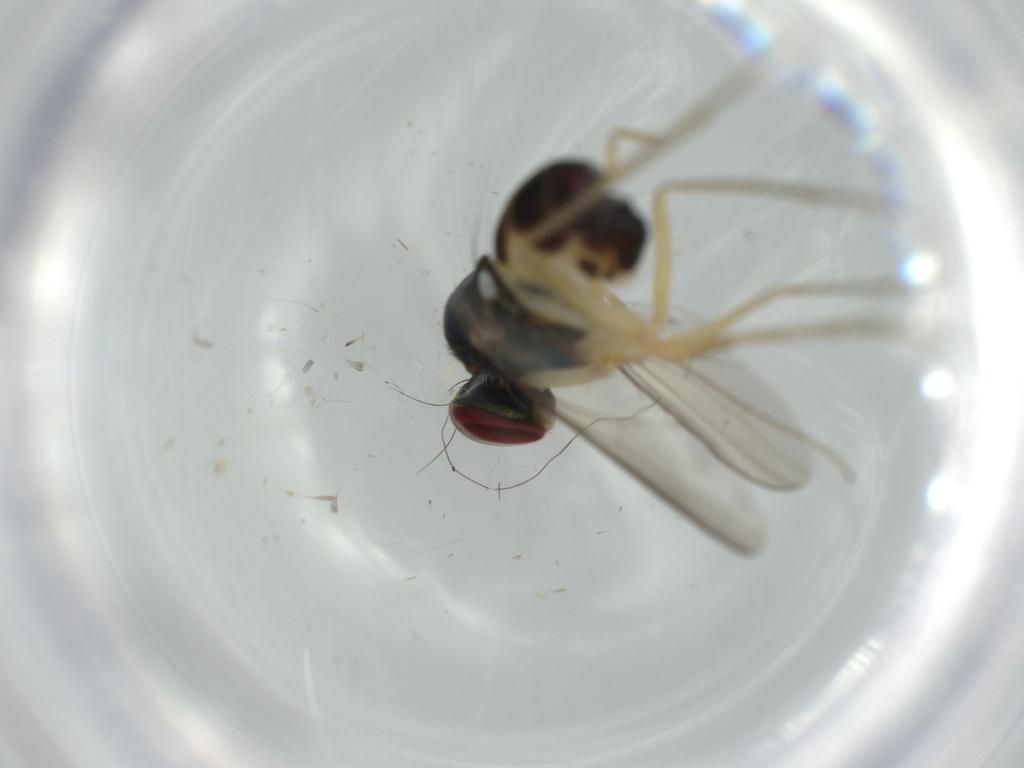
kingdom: Animalia
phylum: Arthropoda
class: Insecta
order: Diptera
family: Dolichopodidae
